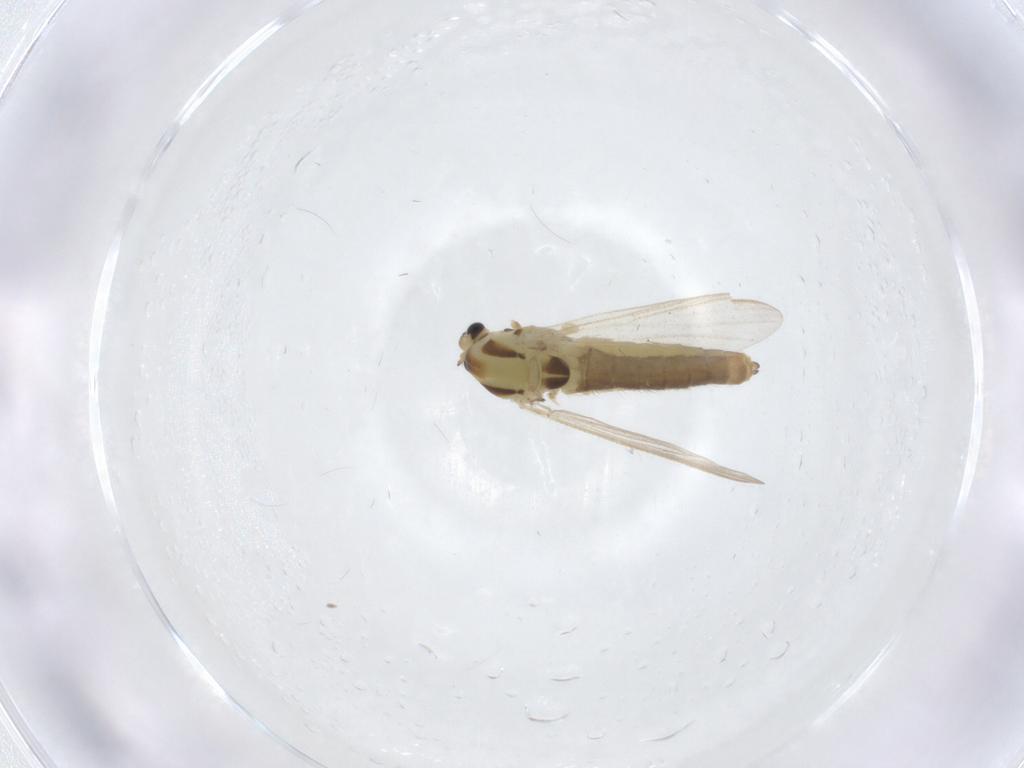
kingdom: Animalia
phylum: Arthropoda
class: Insecta
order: Diptera
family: Chironomidae
